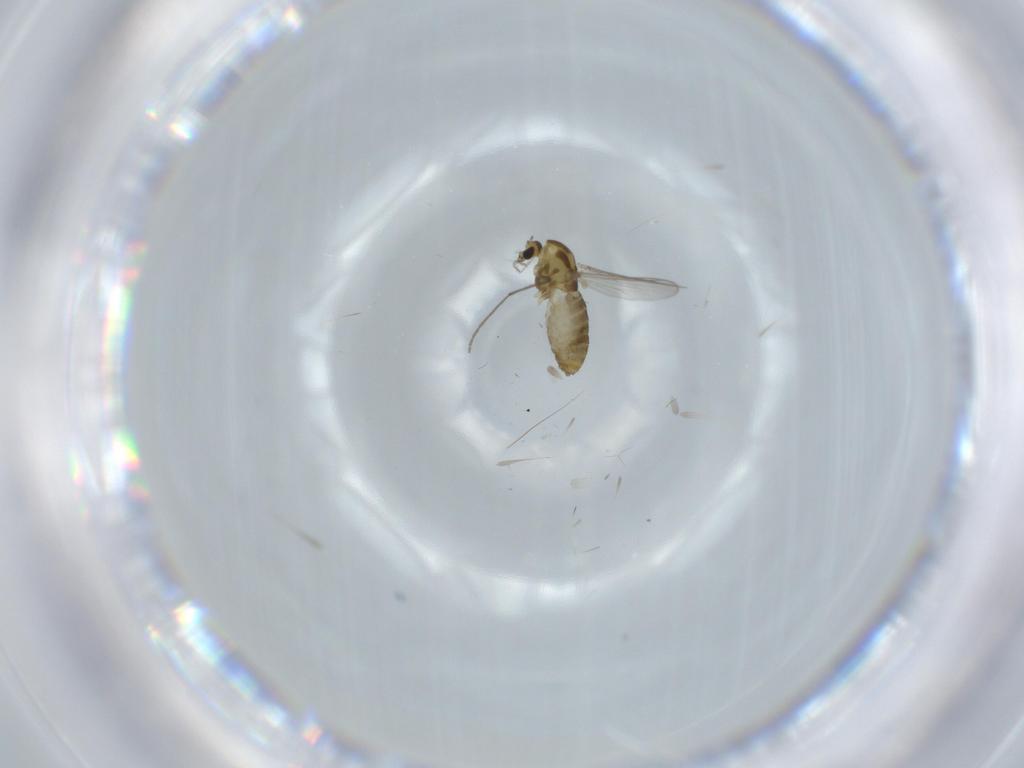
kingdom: Animalia
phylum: Arthropoda
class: Insecta
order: Diptera
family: Chironomidae
